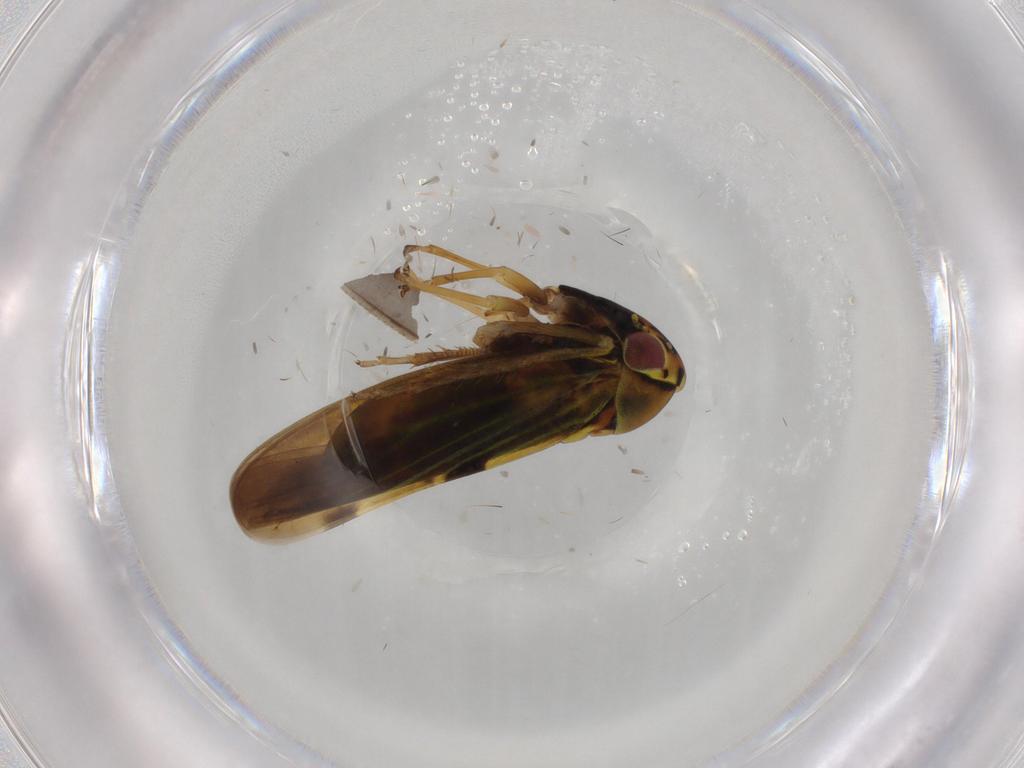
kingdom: Animalia
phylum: Arthropoda
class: Insecta
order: Hemiptera
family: Cicadellidae
